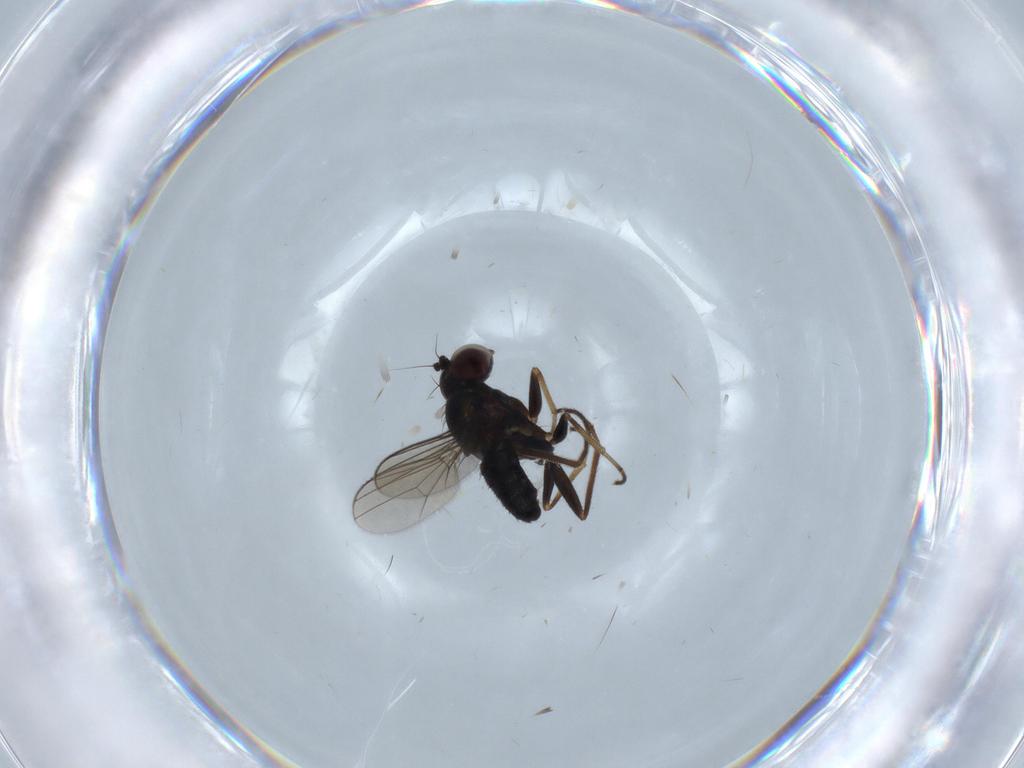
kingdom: Animalia
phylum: Arthropoda
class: Insecta
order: Diptera
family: Dolichopodidae
